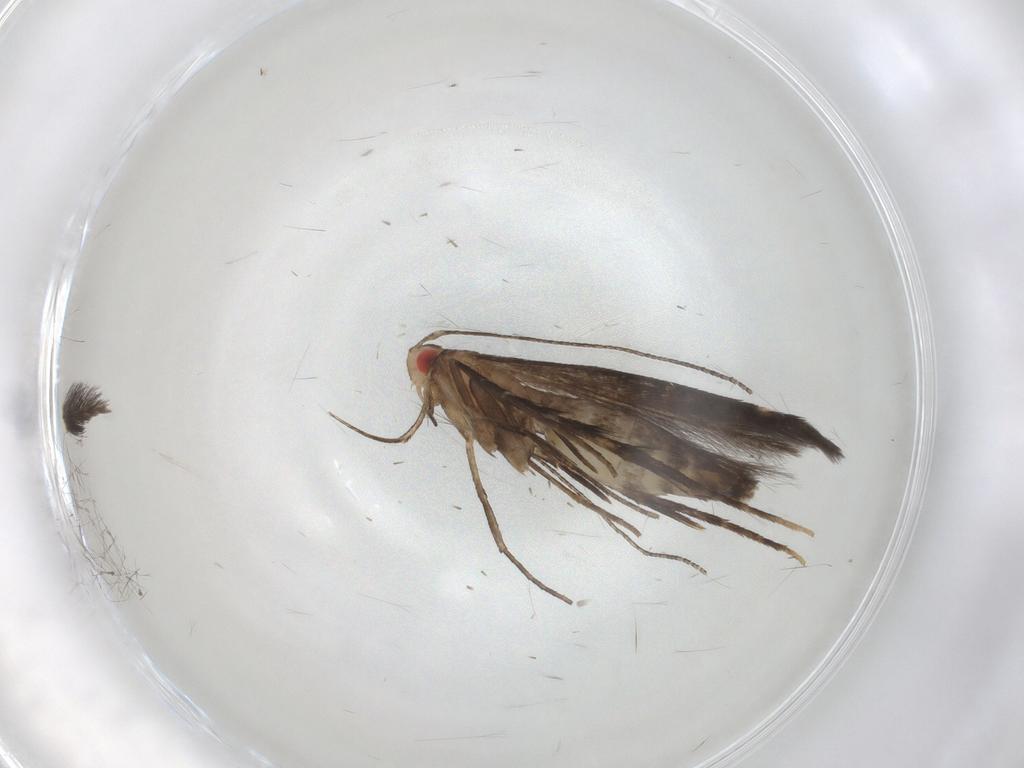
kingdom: Animalia
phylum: Arthropoda
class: Insecta
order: Lepidoptera
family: Cosmopterigidae
